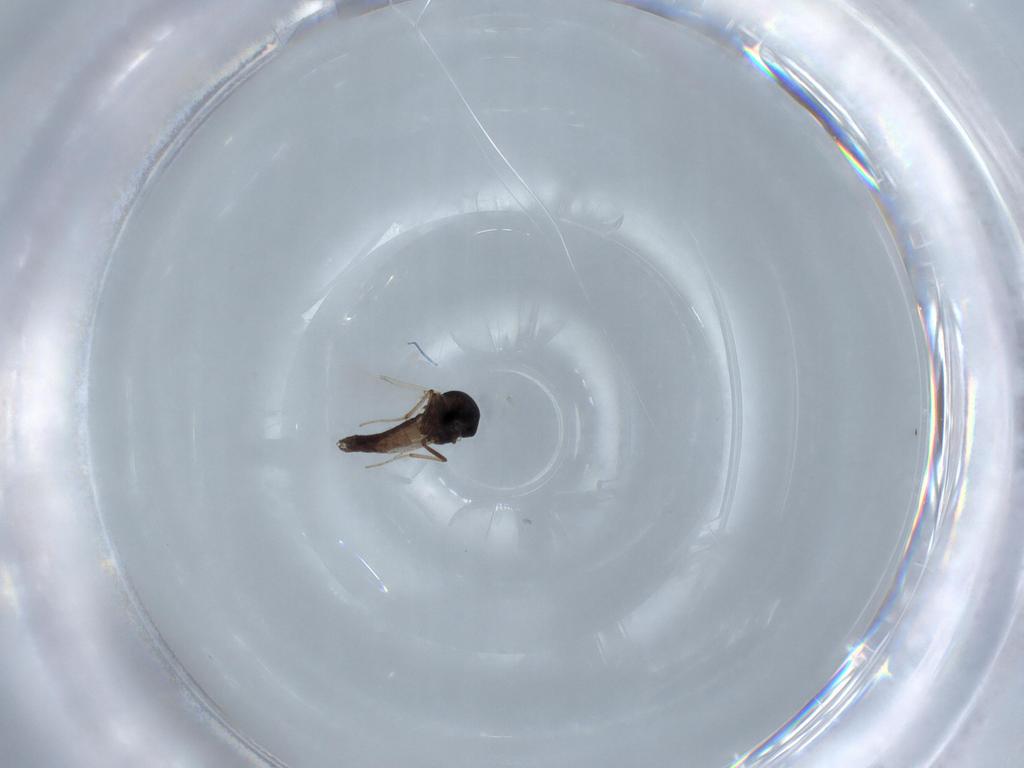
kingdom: Animalia
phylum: Arthropoda
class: Insecta
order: Diptera
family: Ceratopogonidae
